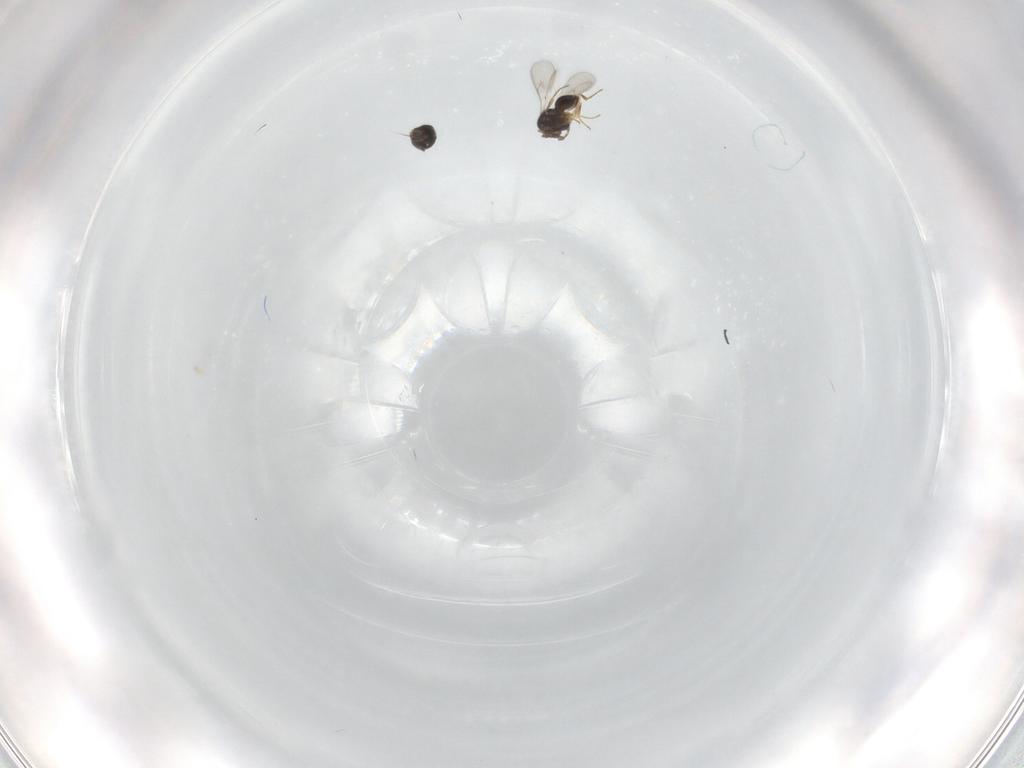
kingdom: Animalia
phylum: Arthropoda
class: Insecta
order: Hymenoptera
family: Scelionidae
